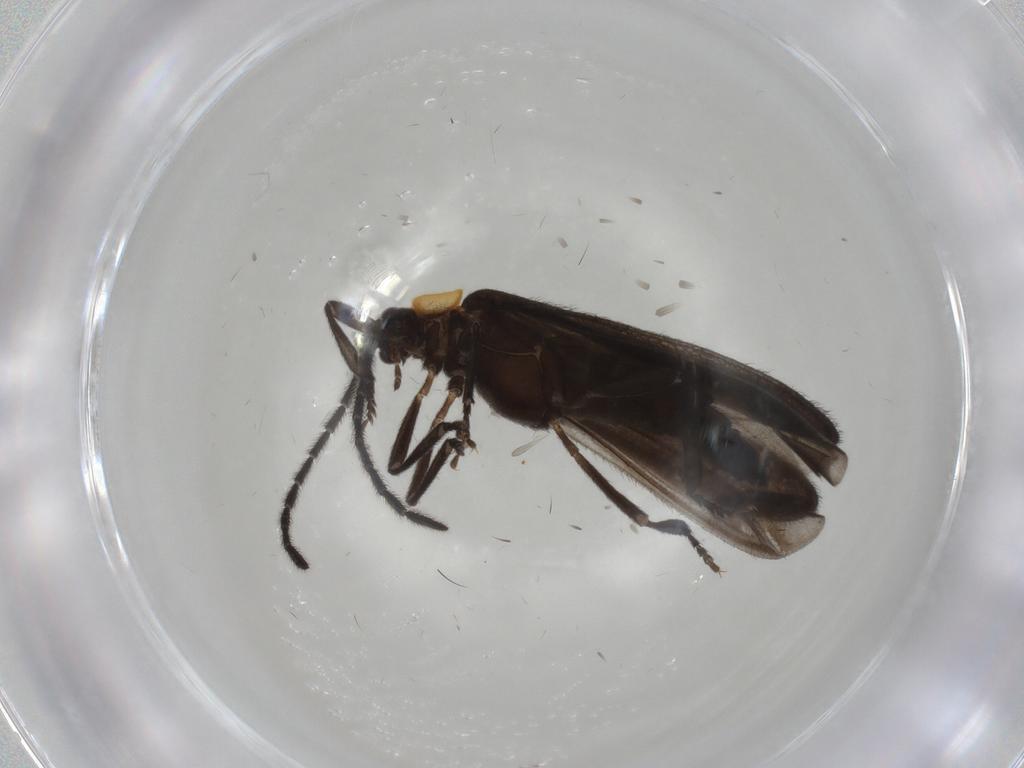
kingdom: Animalia
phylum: Arthropoda
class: Insecta
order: Coleoptera
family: Lycidae
